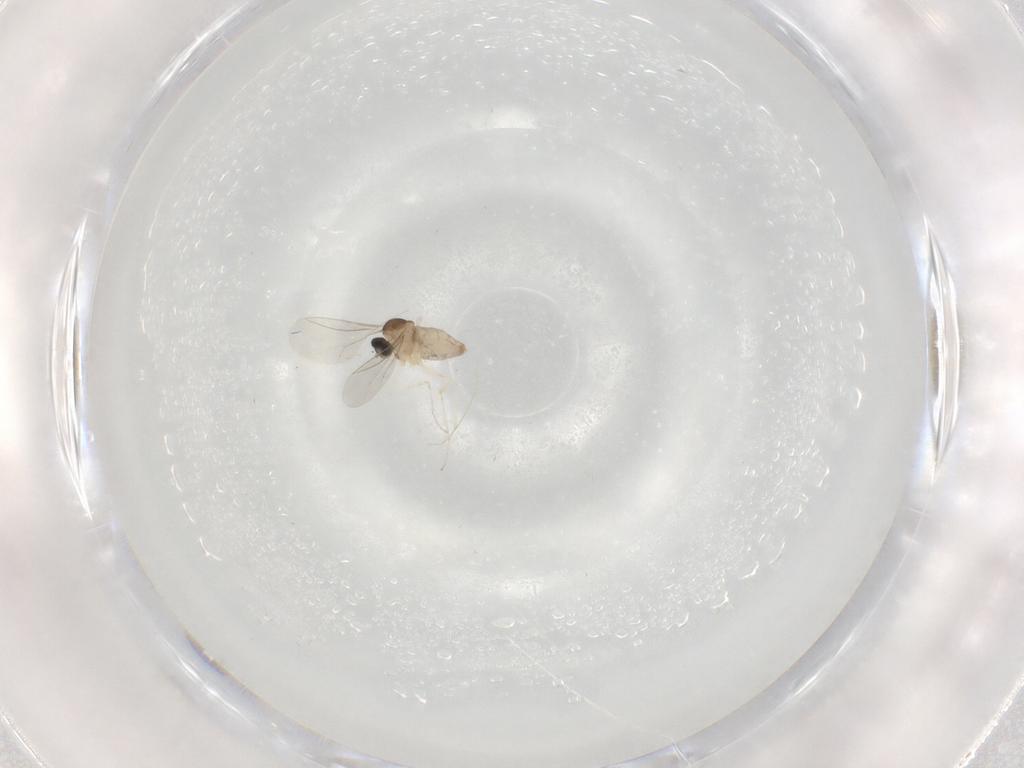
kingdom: Animalia
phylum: Arthropoda
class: Insecta
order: Diptera
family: Cecidomyiidae
